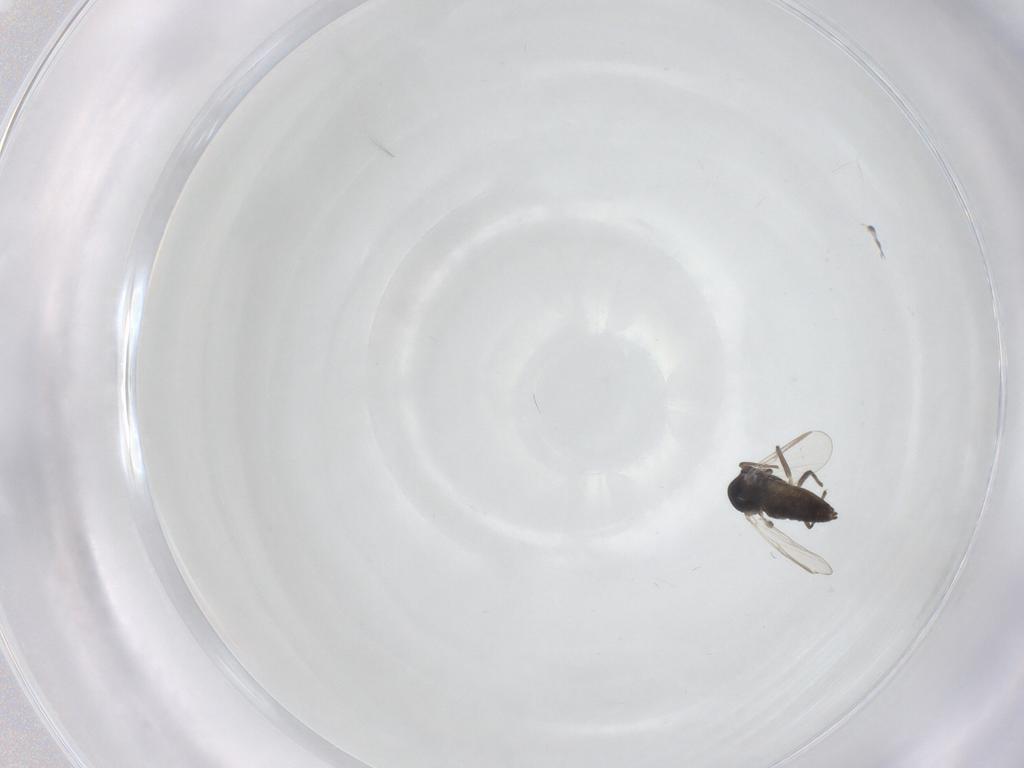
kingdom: Animalia
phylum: Arthropoda
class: Insecta
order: Diptera
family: Chironomidae
